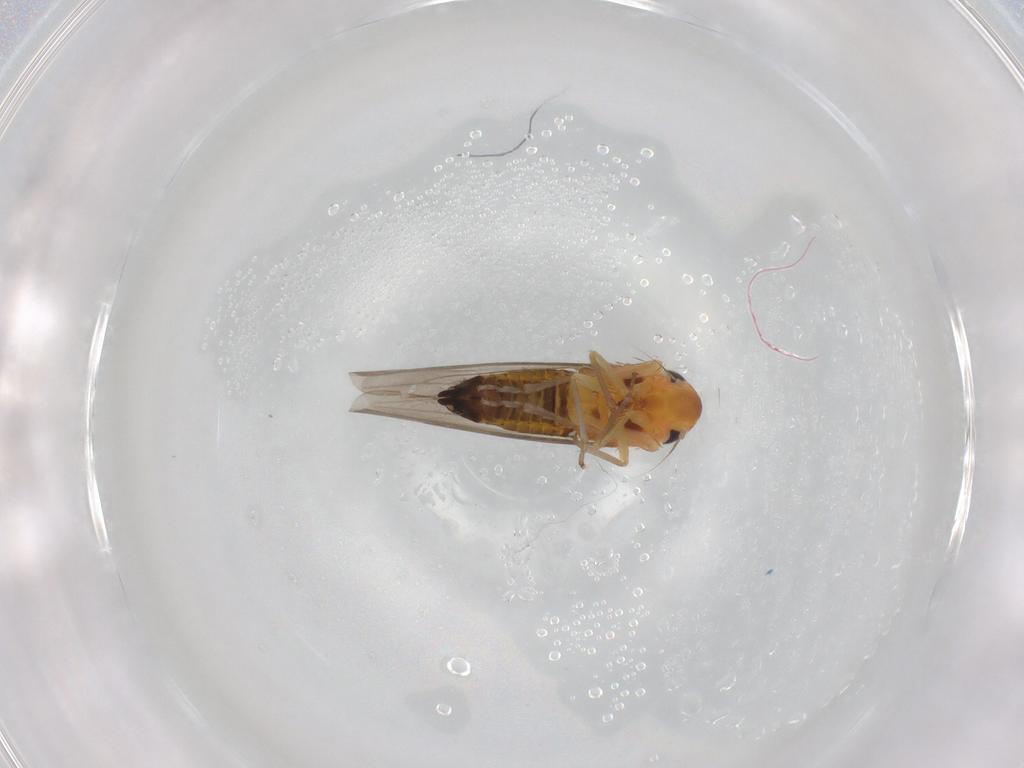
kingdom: Animalia
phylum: Arthropoda
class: Insecta
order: Hemiptera
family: Cicadellidae
